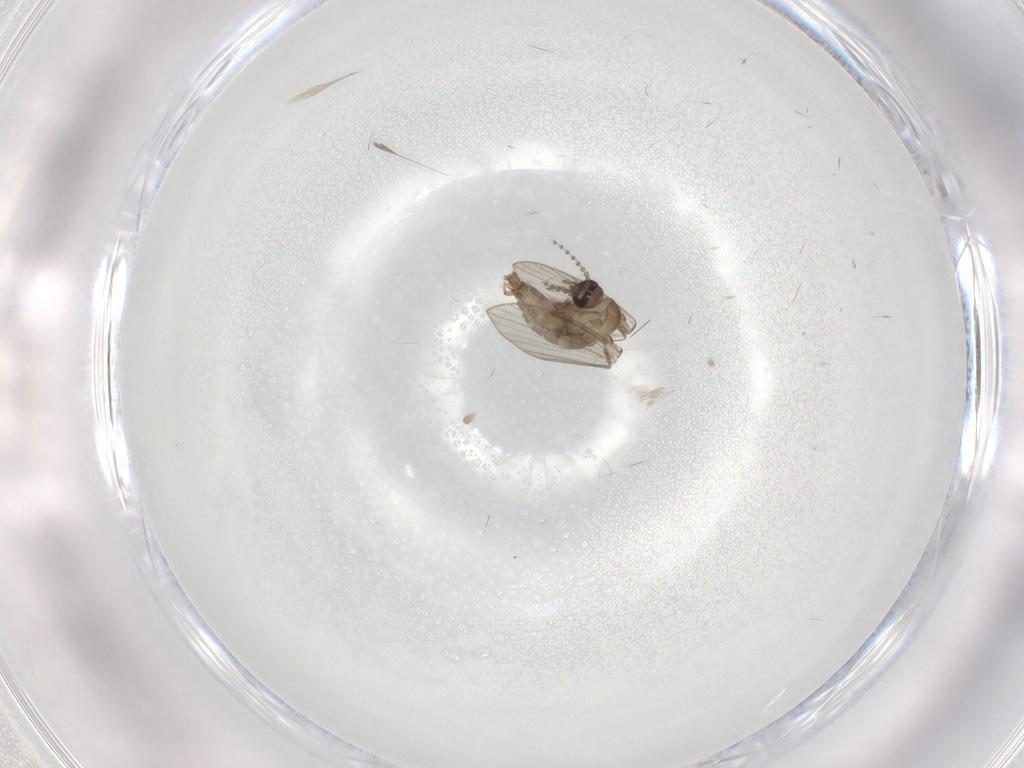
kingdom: Animalia
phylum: Arthropoda
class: Insecta
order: Diptera
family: Psychodidae
